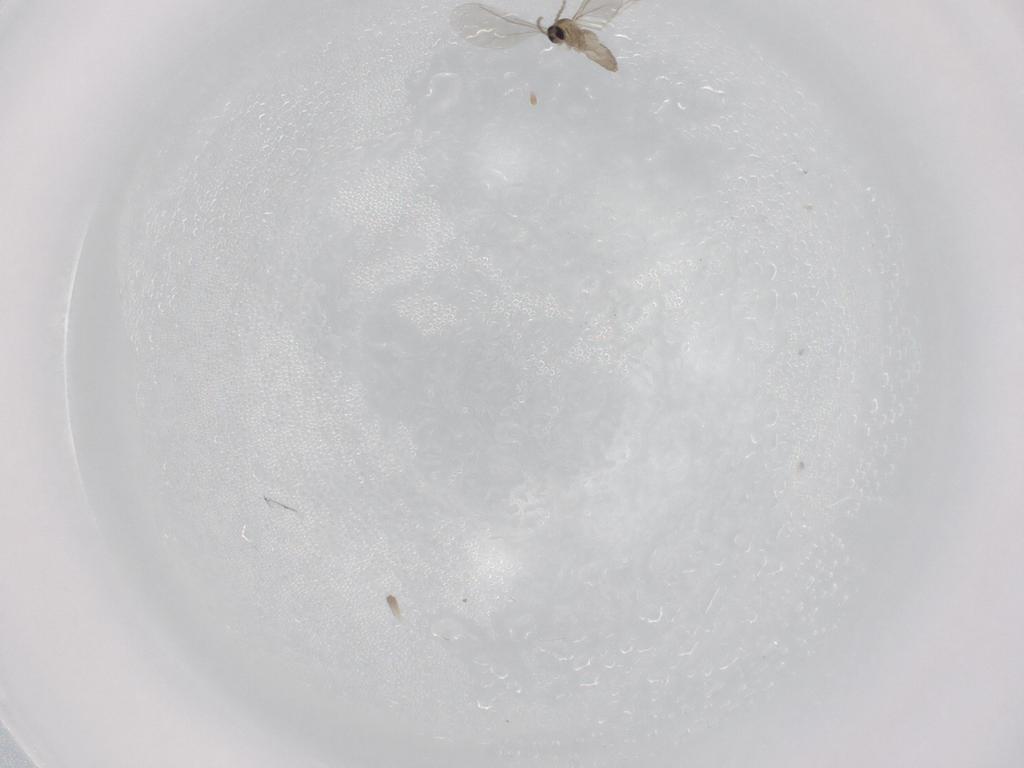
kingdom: Animalia
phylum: Arthropoda
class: Insecta
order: Diptera
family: Cecidomyiidae
